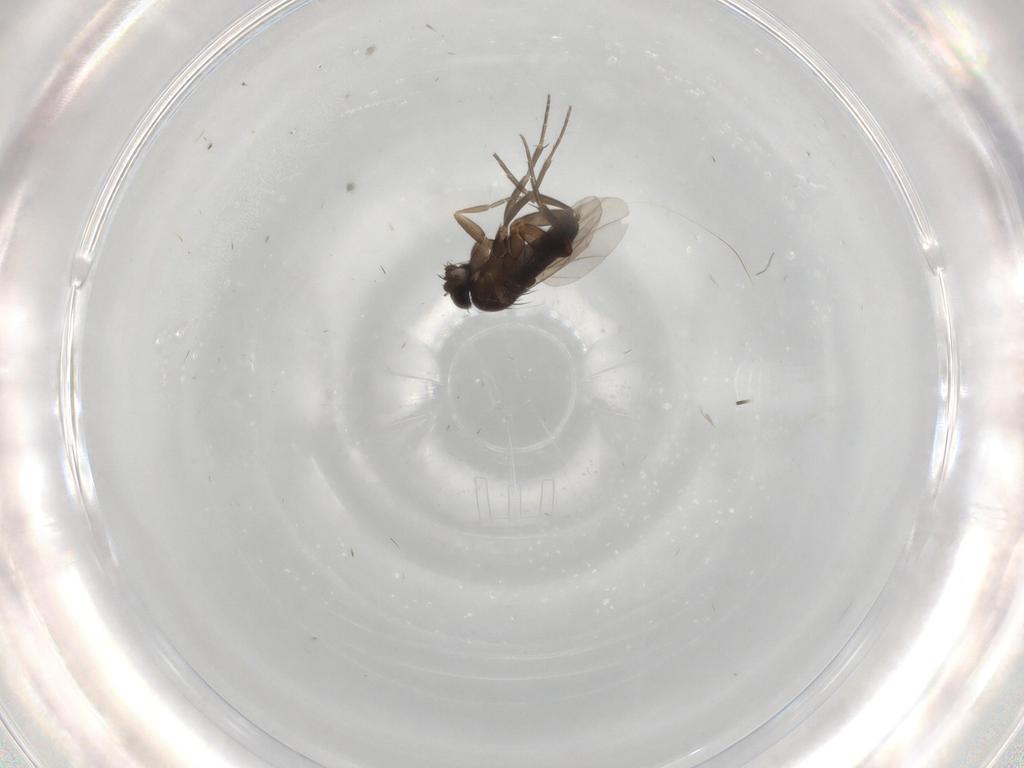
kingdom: Animalia
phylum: Arthropoda
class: Insecta
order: Diptera
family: Phoridae
